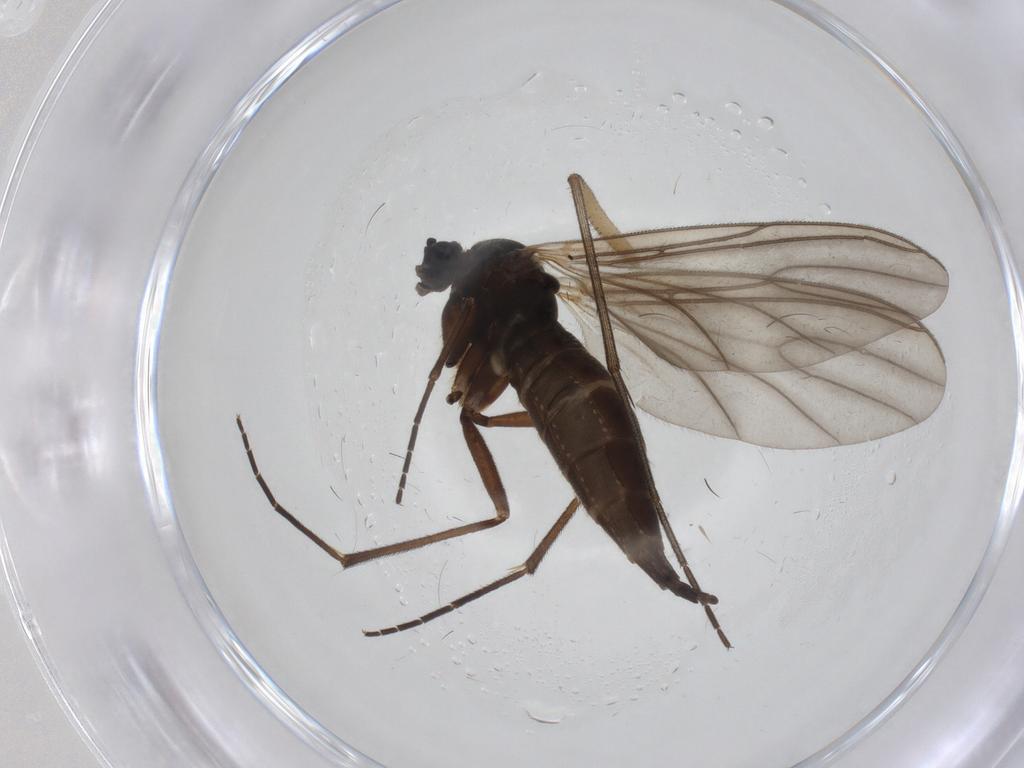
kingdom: Animalia
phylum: Arthropoda
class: Insecta
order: Diptera
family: Sciaridae
